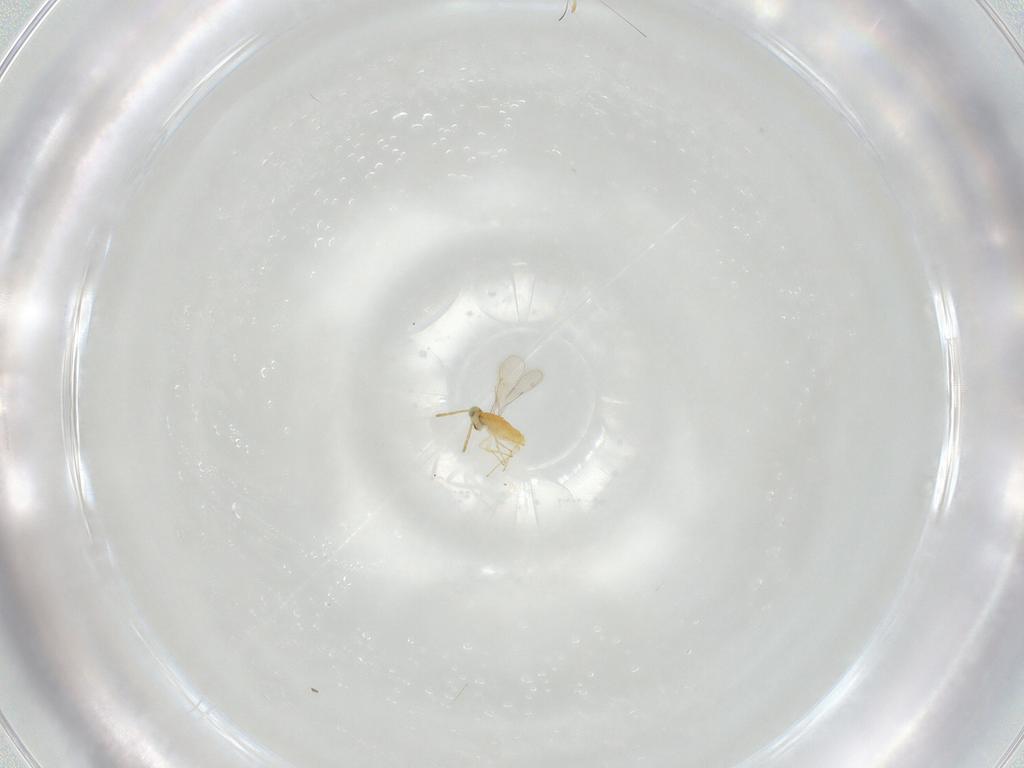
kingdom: Animalia
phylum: Arthropoda
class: Insecta
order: Hymenoptera
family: Aphelinidae
